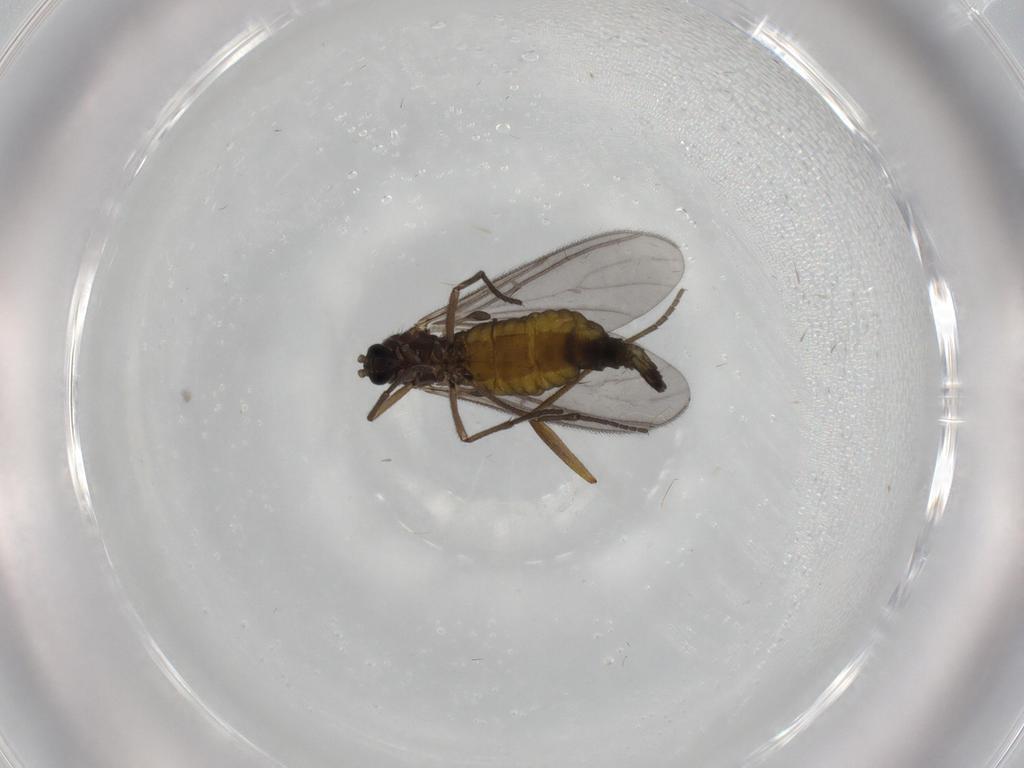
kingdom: Animalia
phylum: Arthropoda
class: Insecta
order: Diptera
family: Sciaridae
